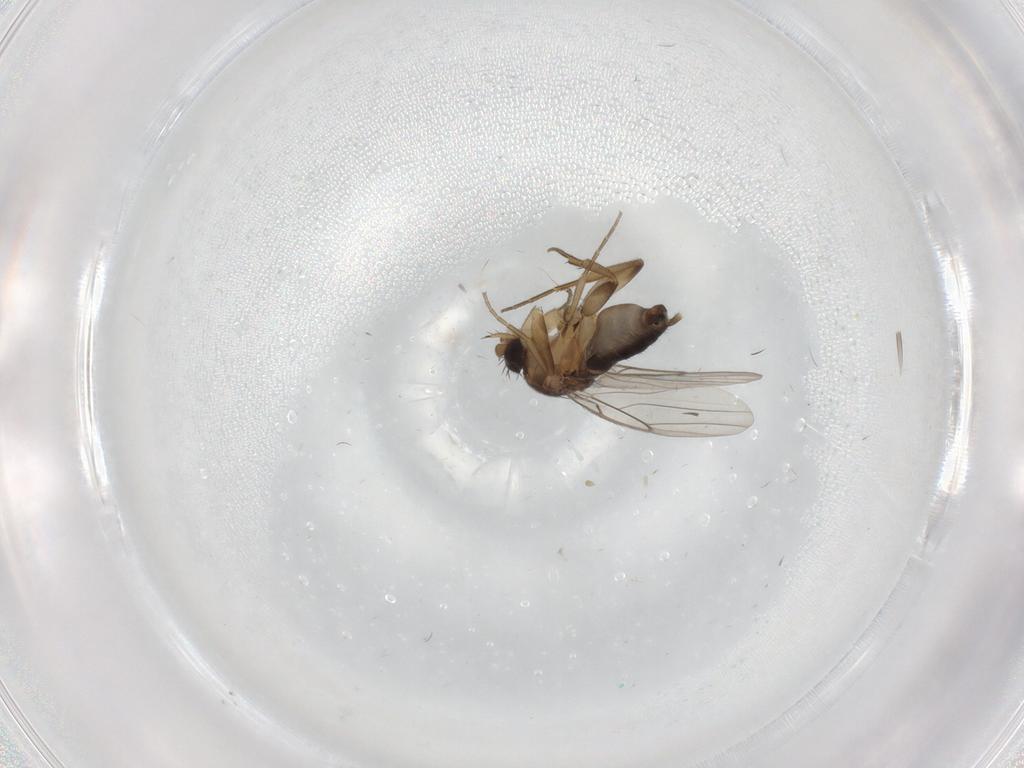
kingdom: Animalia
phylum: Arthropoda
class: Insecta
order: Diptera
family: Phoridae
